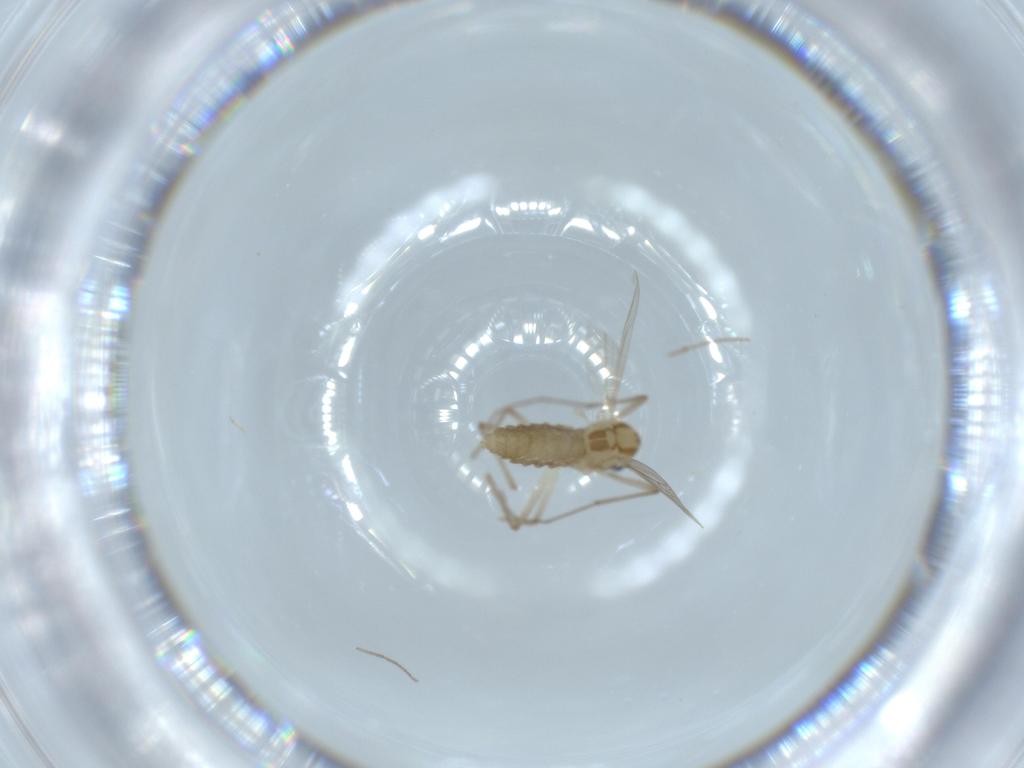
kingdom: Animalia
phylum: Arthropoda
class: Insecta
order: Diptera
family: Chironomidae
